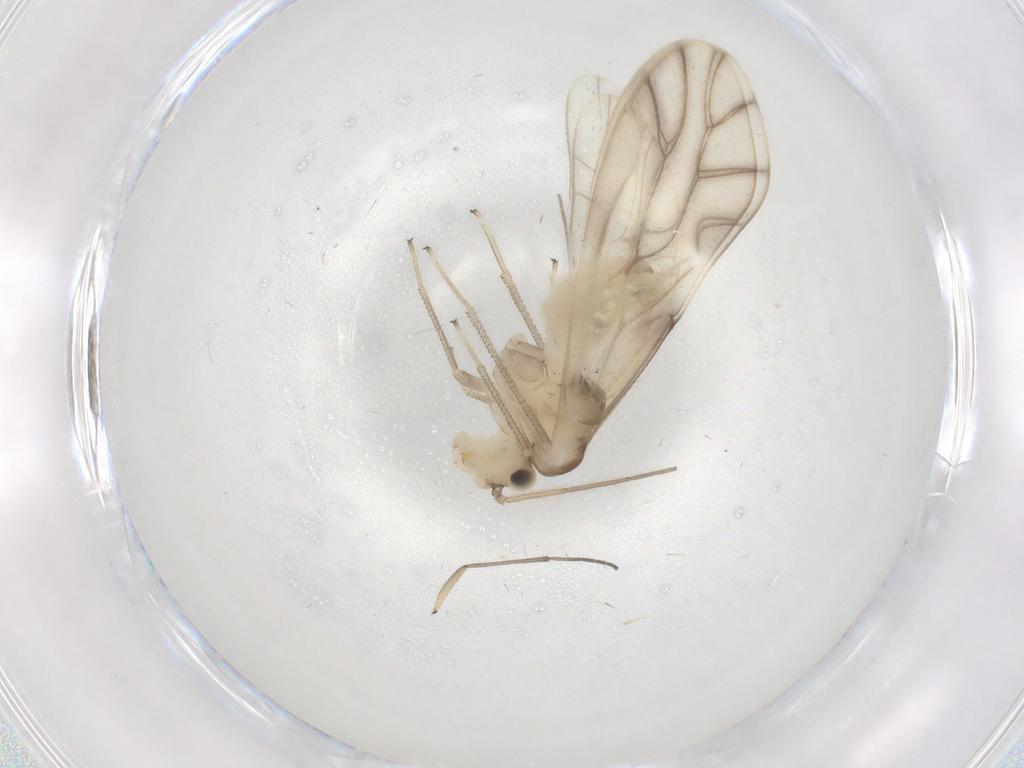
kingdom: Animalia
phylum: Arthropoda
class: Insecta
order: Psocodea
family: Caeciliusidae
